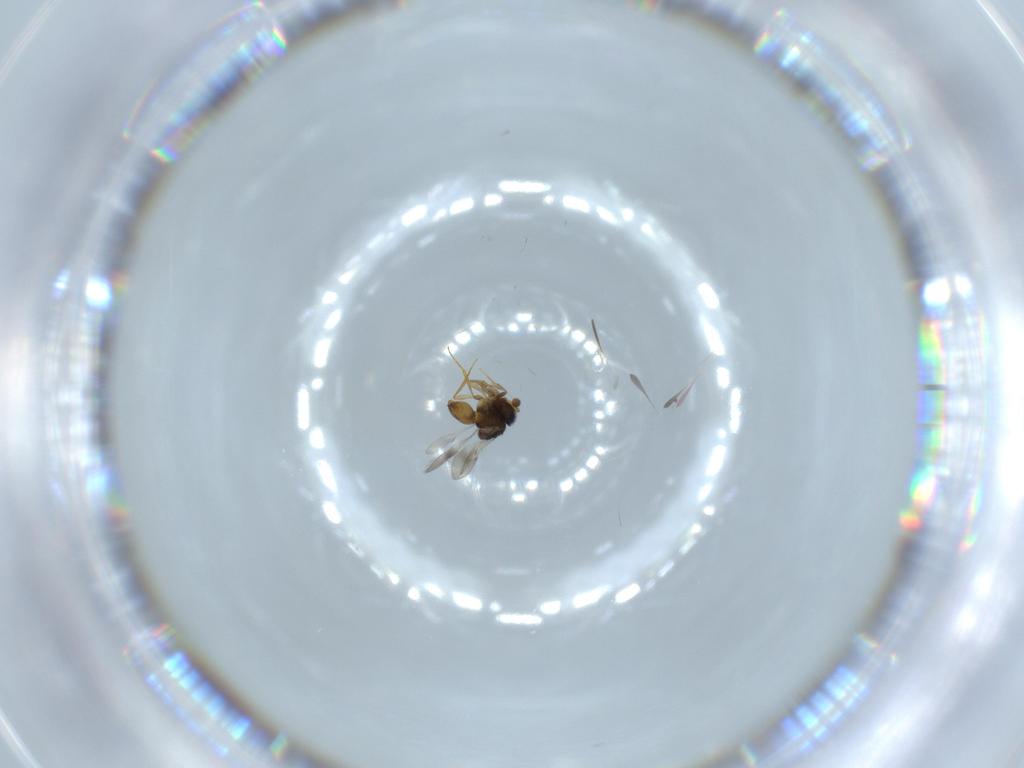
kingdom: Animalia
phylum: Arthropoda
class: Insecta
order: Hymenoptera
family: Scelionidae
